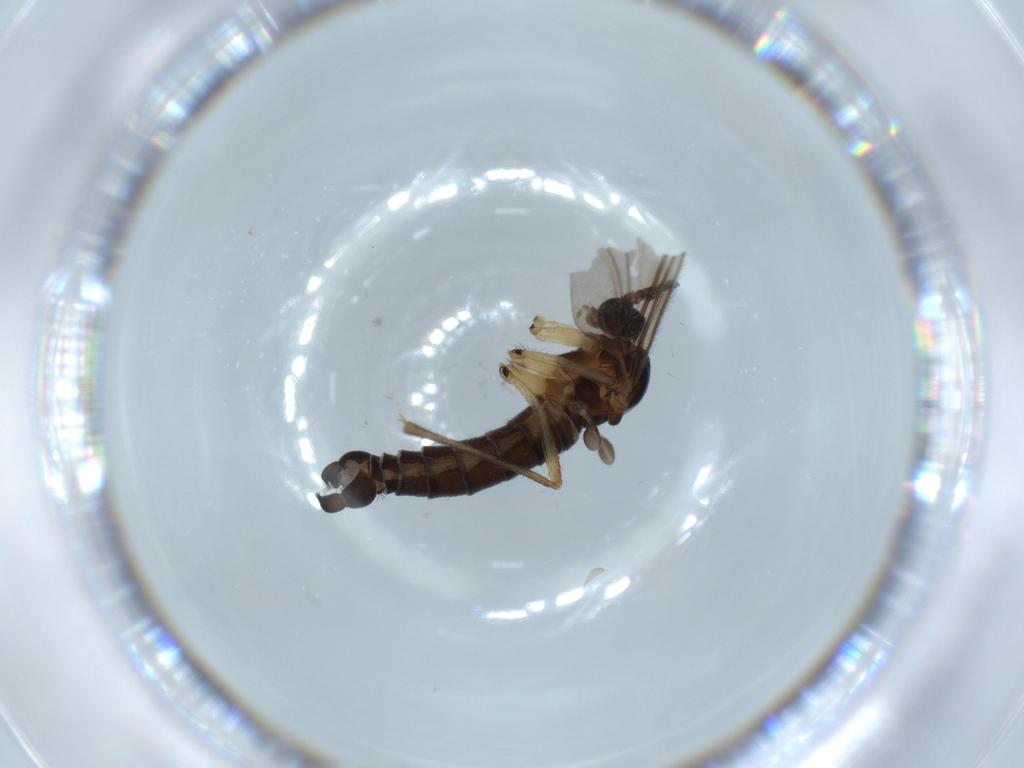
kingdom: Animalia
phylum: Arthropoda
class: Insecta
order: Diptera
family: Sciaridae
